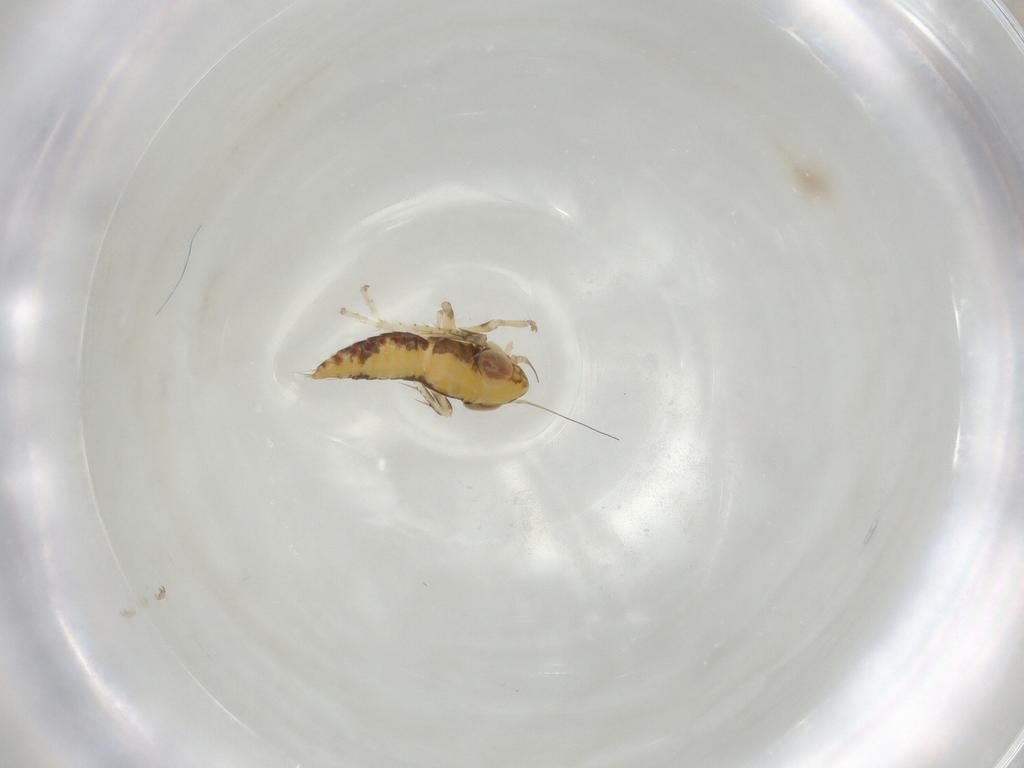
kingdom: Animalia
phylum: Arthropoda
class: Insecta
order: Hemiptera
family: Cicadellidae
